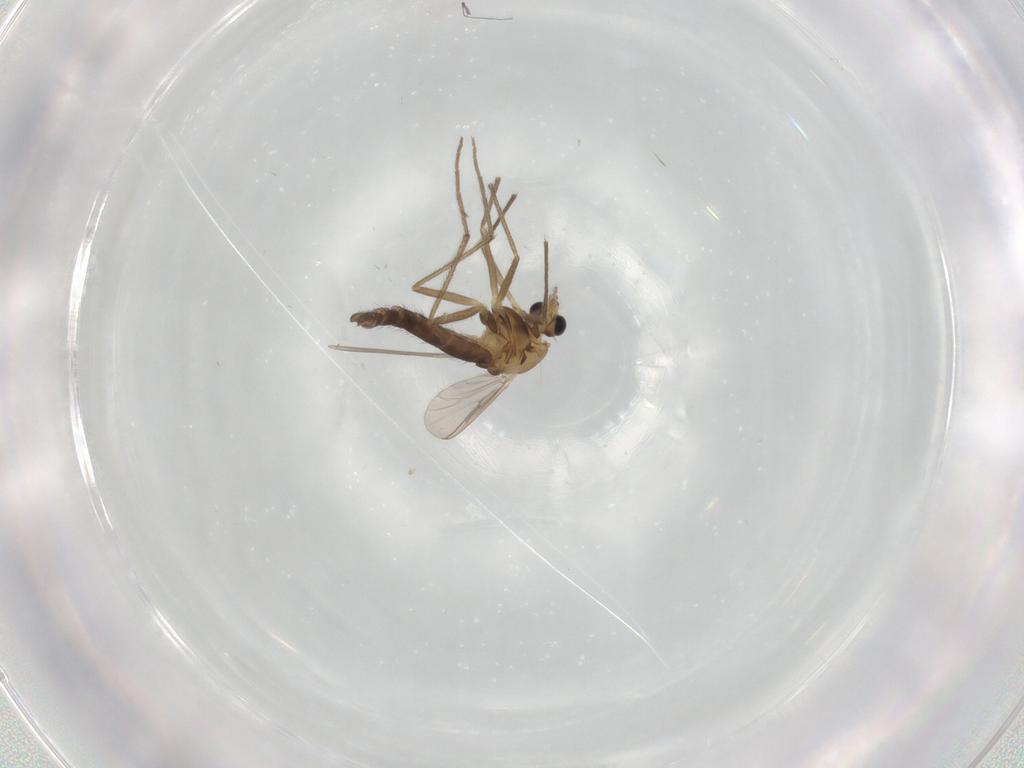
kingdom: Animalia
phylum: Arthropoda
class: Insecta
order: Diptera
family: Chironomidae
